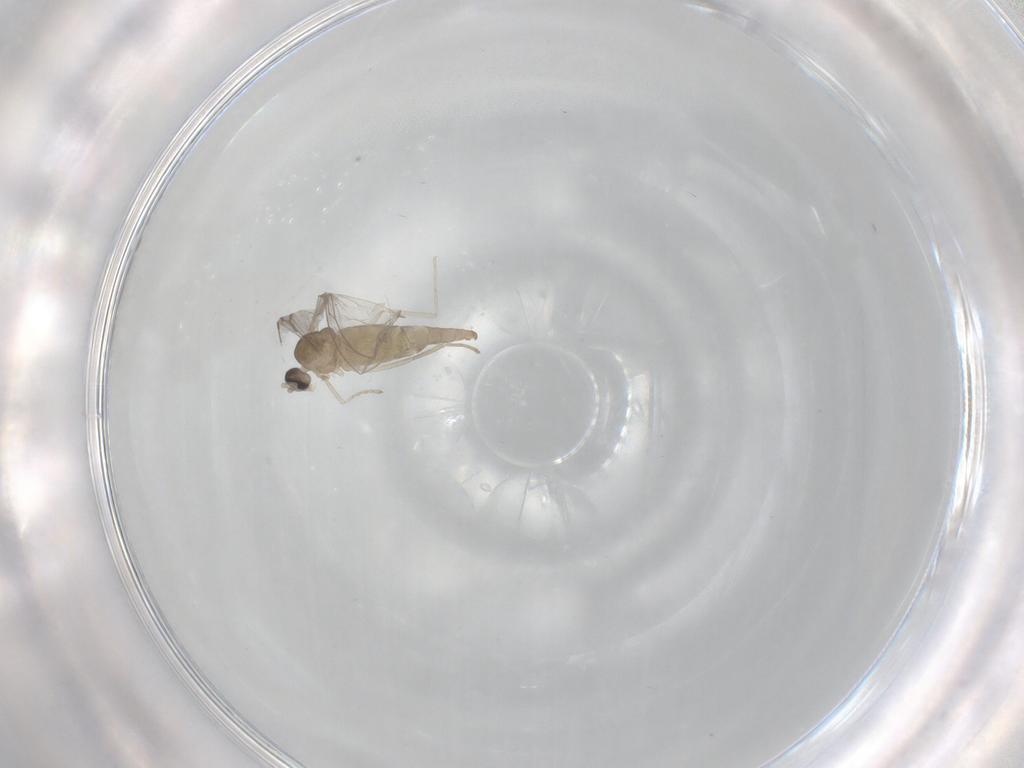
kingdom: Animalia
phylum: Arthropoda
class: Insecta
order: Diptera
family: Cecidomyiidae
